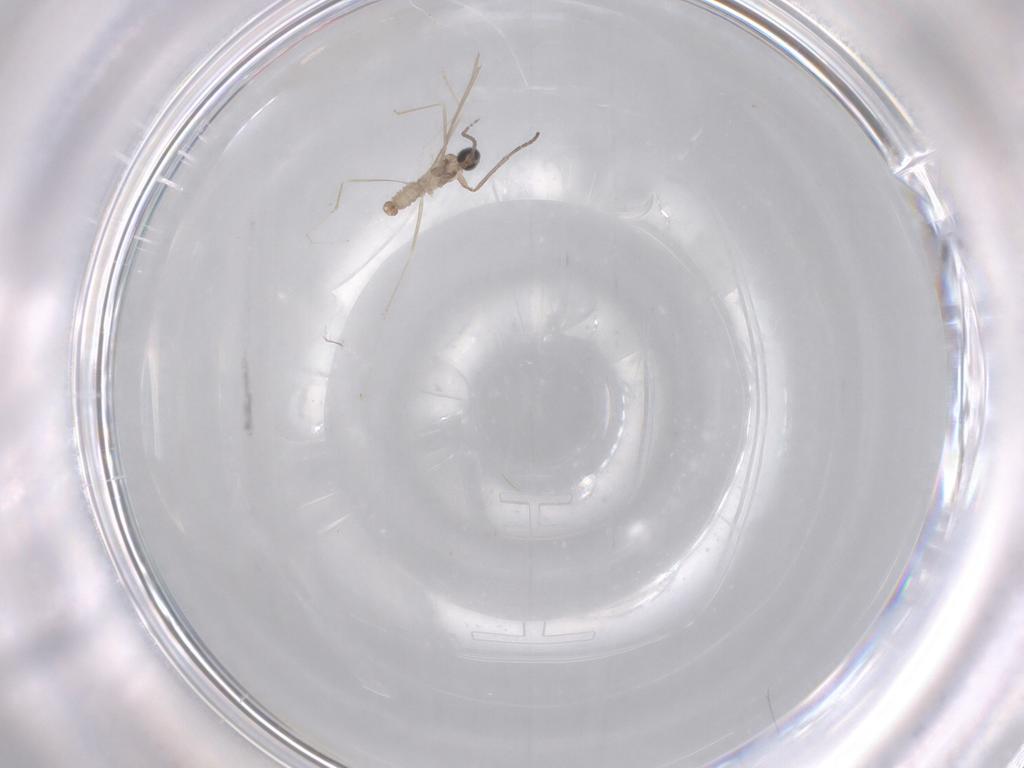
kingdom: Animalia
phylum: Arthropoda
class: Insecta
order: Diptera
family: Cecidomyiidae
